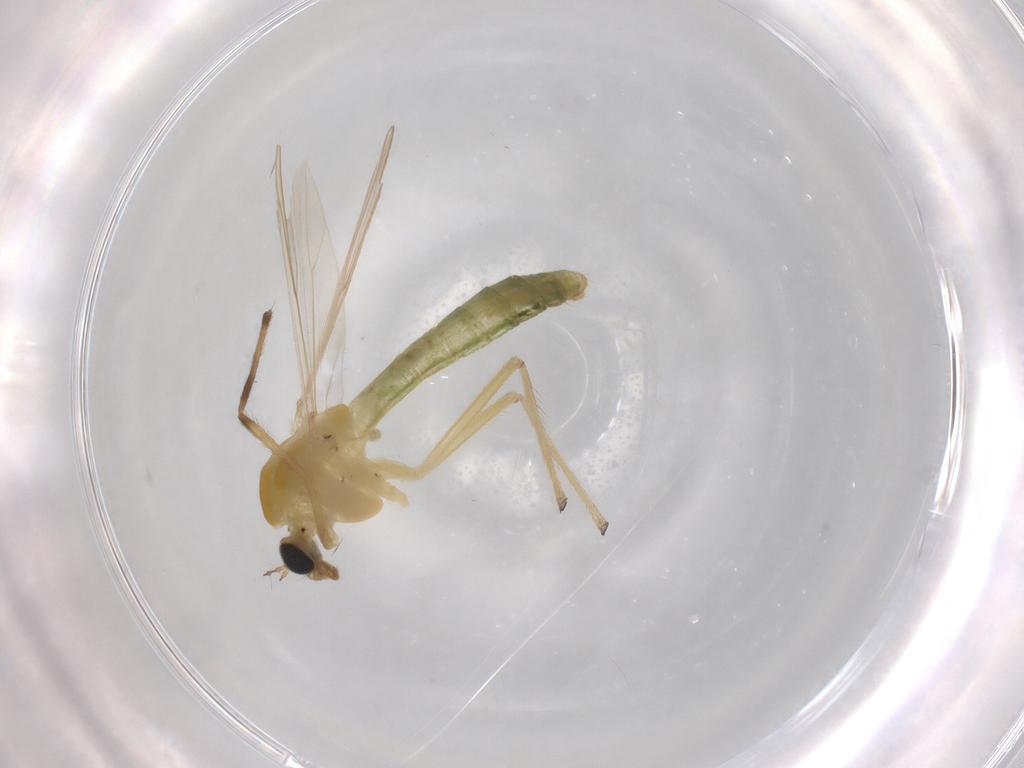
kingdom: Animalia
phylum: Arthropoda
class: Insecta
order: Diptera
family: Chironomidae
